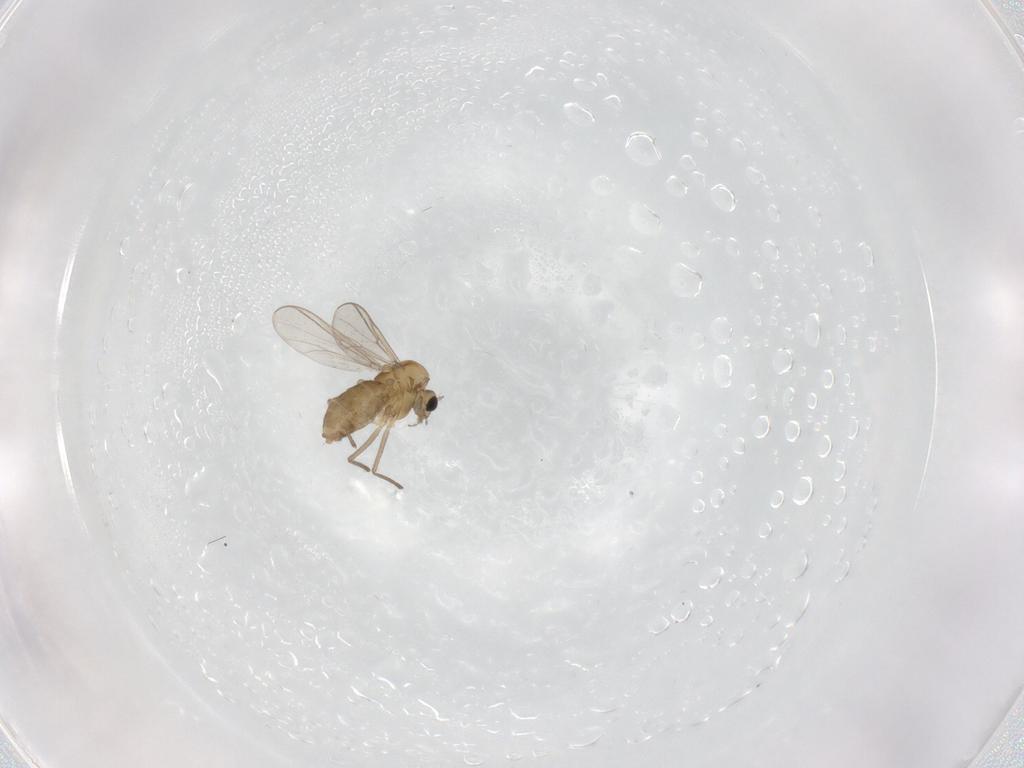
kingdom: Animalia
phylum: Arthropoda
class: Insecta
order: Diptera
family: Chironomidae
